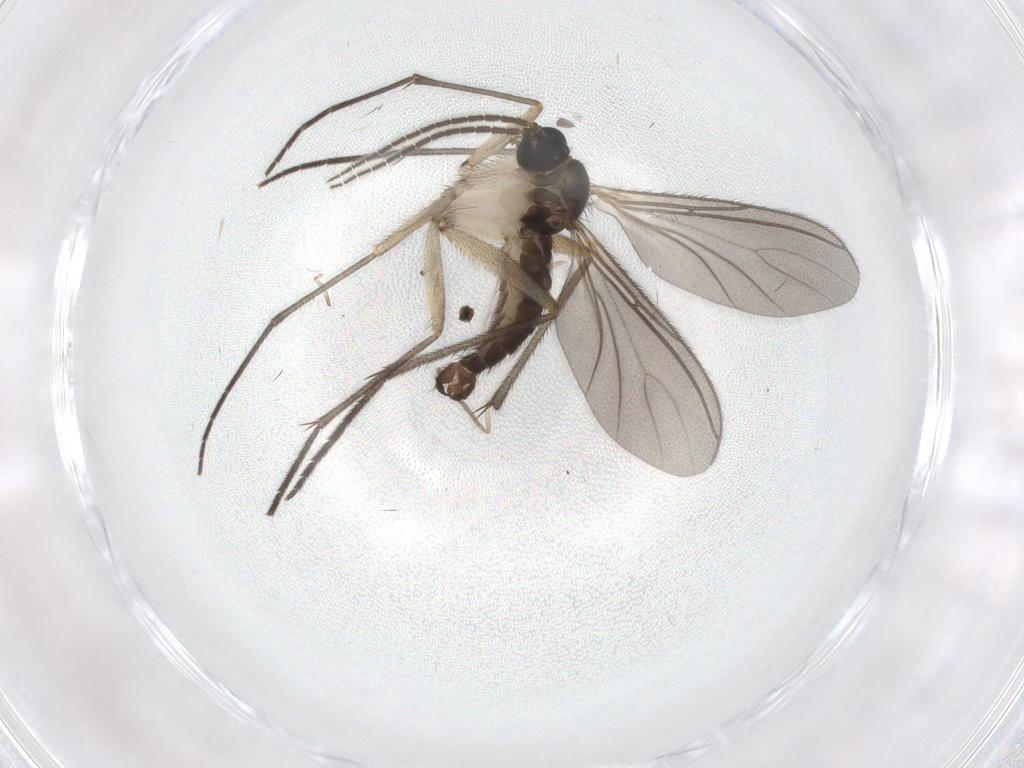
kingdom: Animalia
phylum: Arthropoda
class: Insecta
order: Diptera
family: Sciaridae
